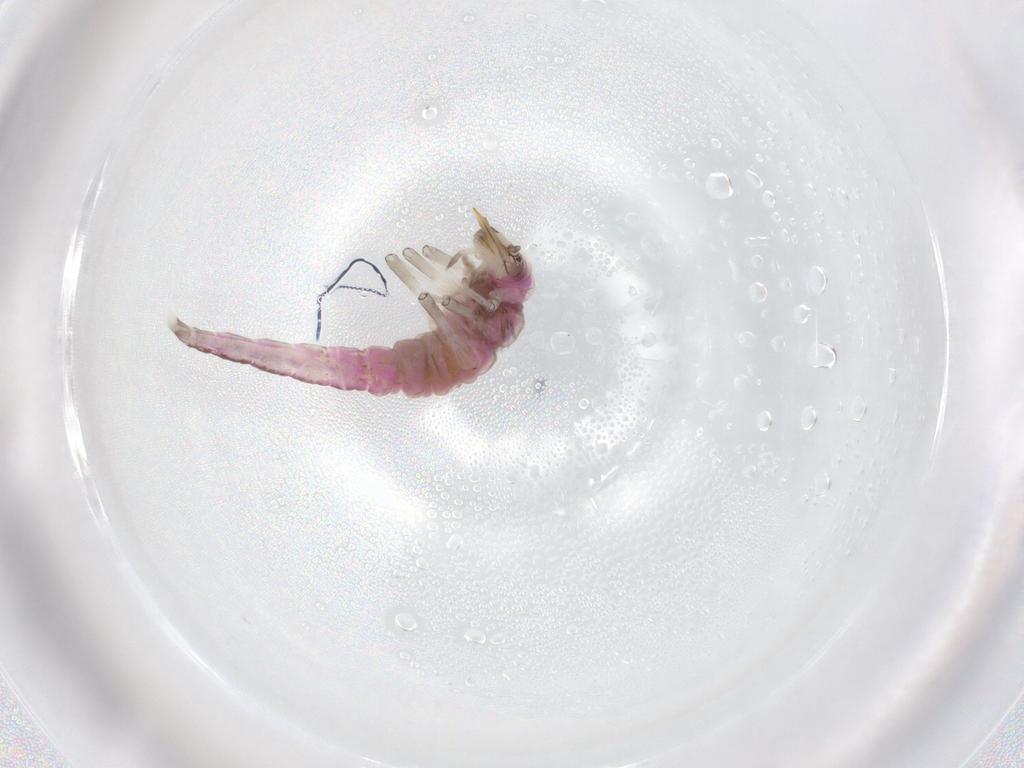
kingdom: Animalia
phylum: Arthropoda
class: Insecta
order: Neuroptera
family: Hemerobiidae
